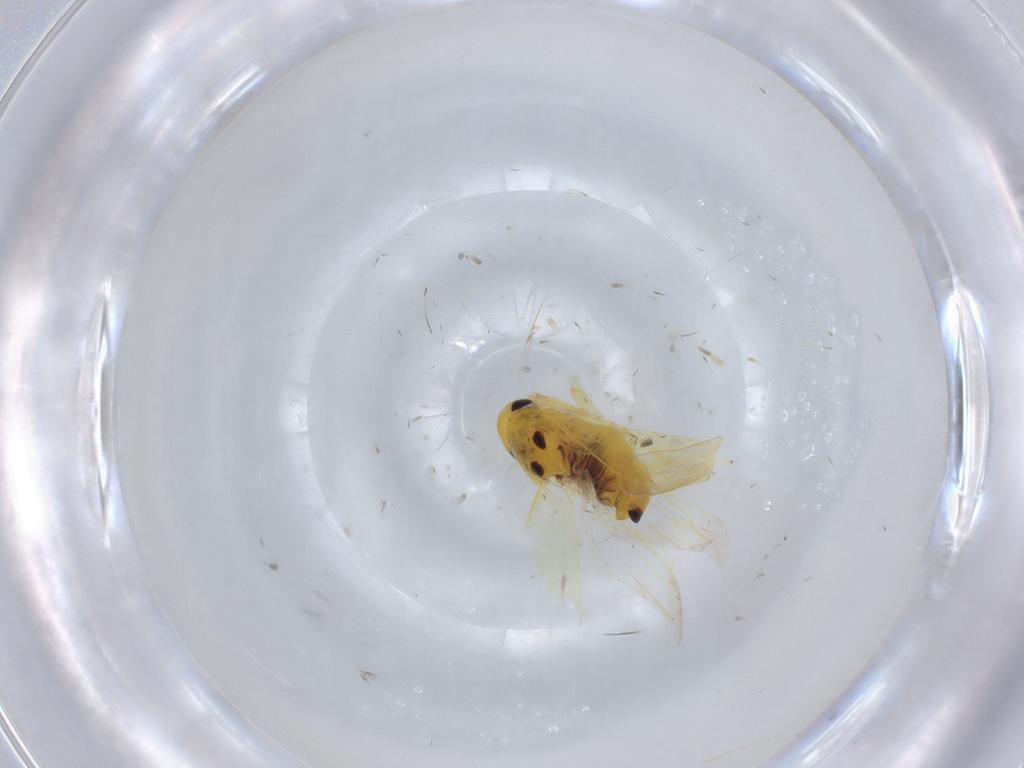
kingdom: Animalia
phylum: Arthropoda
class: Insecta
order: Hemiptera
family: Cicadellidae
